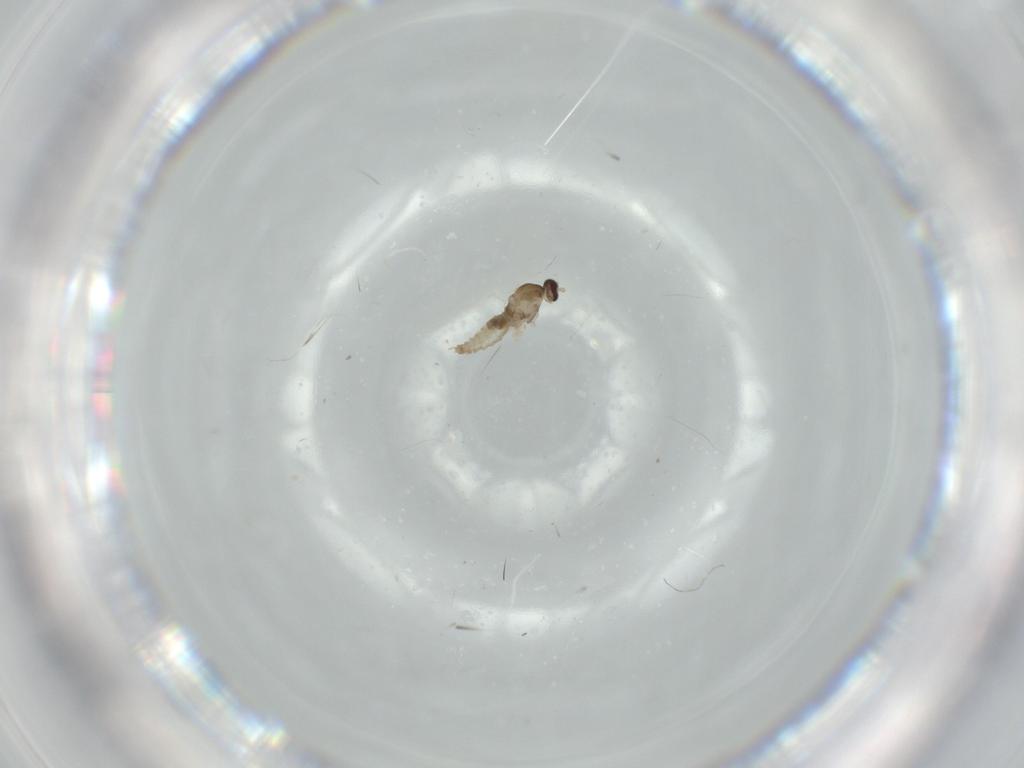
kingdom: Animalia
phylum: Arthropoda
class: Insecta
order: Diptera
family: Cecidomyiidae
